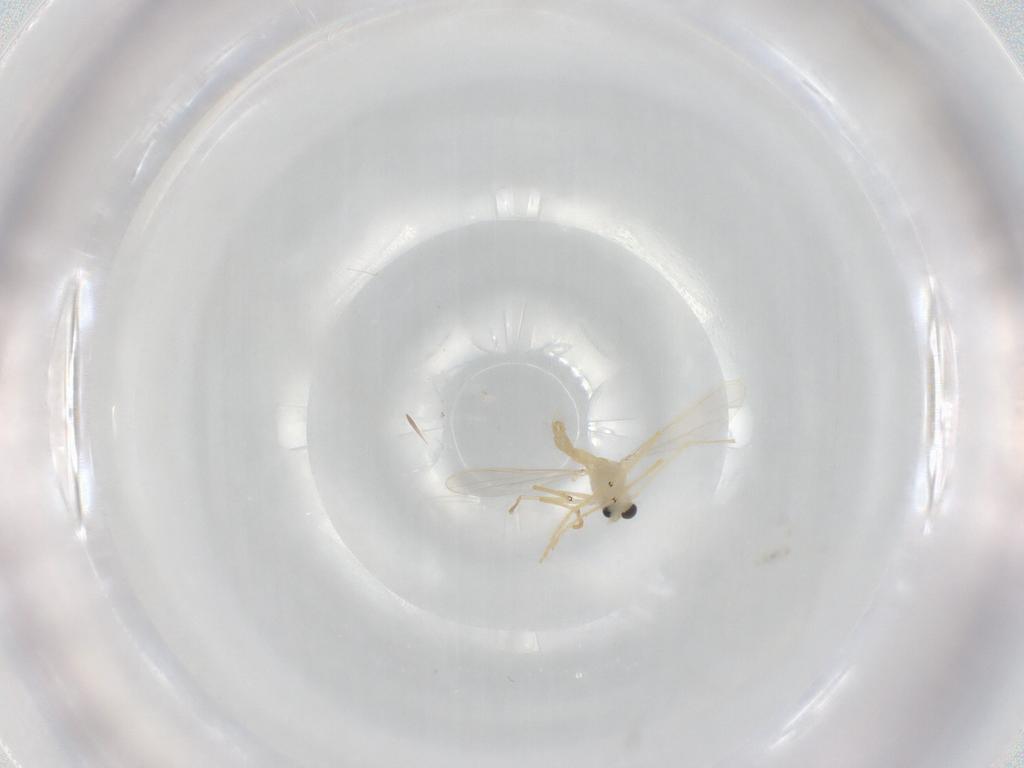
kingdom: Animalia
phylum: Arthropoda
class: Insecta
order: Diptera
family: Chironomidae
